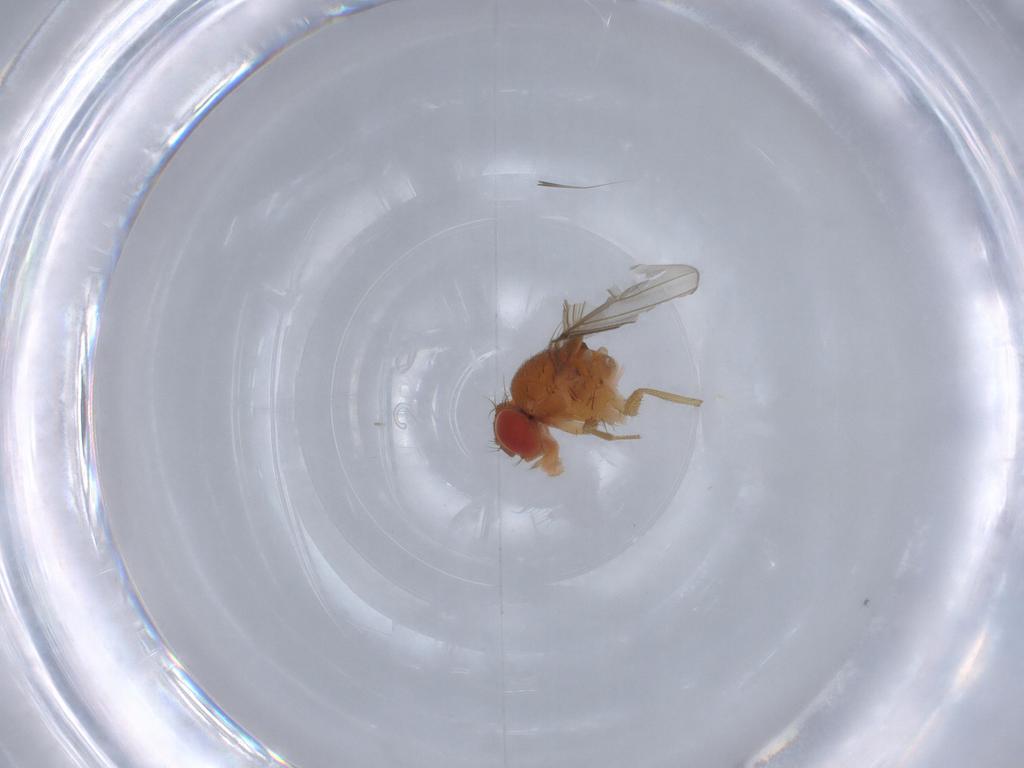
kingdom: Animalia
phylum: Arthropoda
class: Insecta
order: Diptera
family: Drosophilidae
